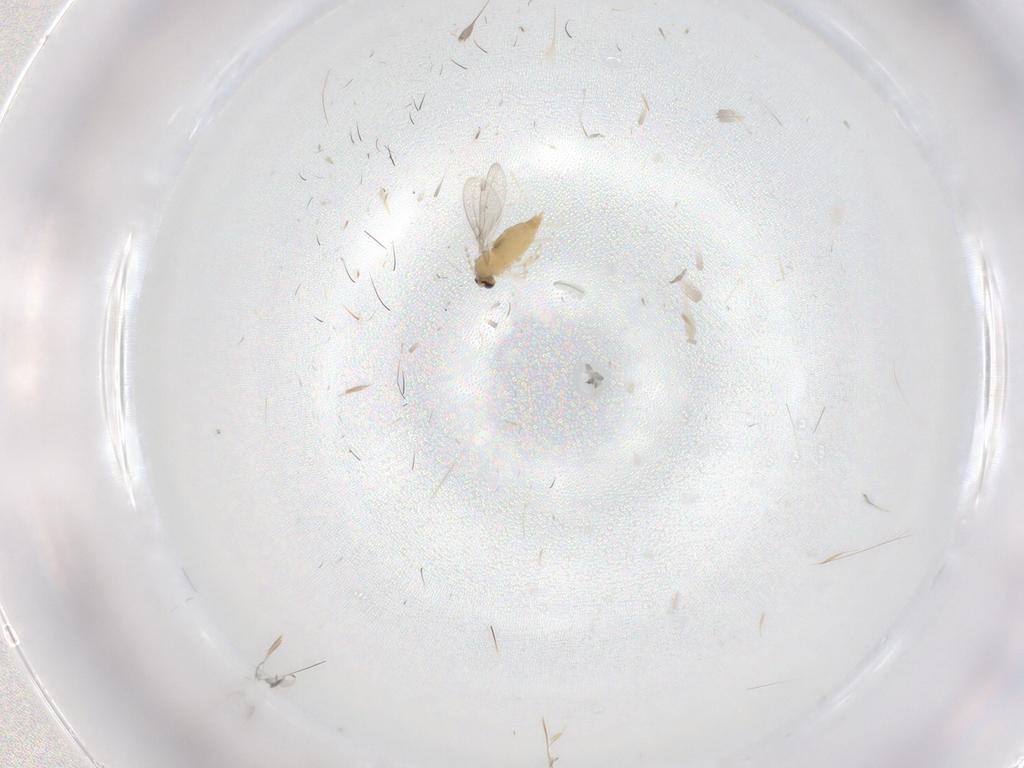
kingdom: Animalia
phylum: Arthropoda
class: Insecta
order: Diptera
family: Cecidomyiidae
